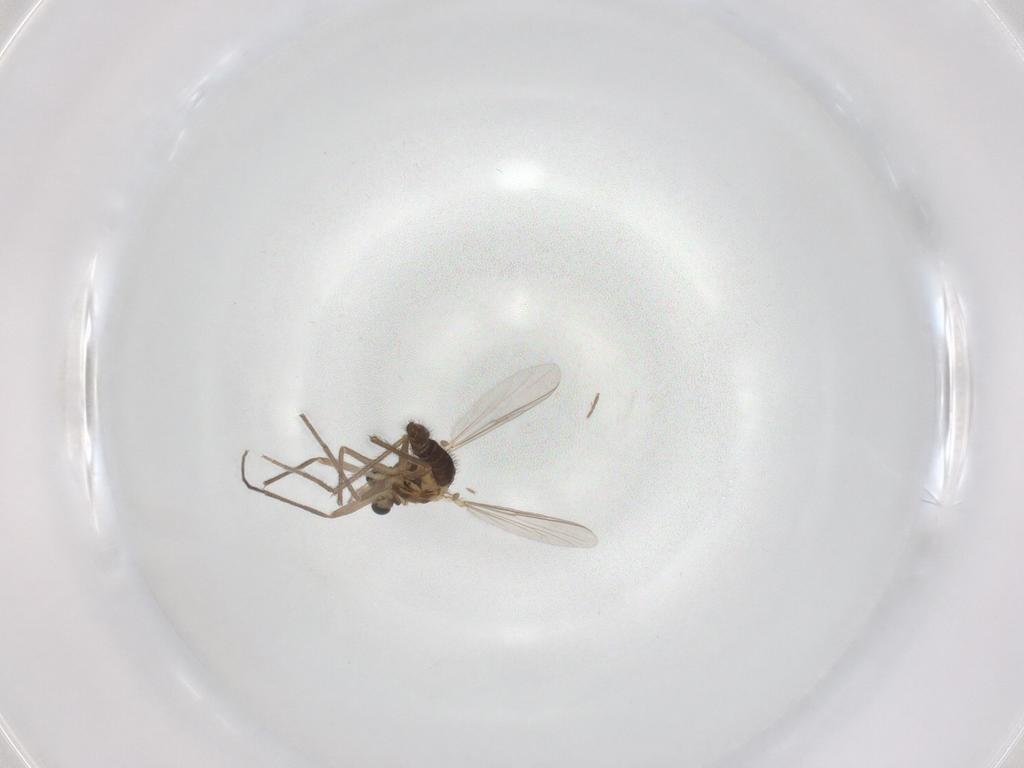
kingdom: Animalia
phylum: Arthropoda
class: Insecta
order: Diptera
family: Chironomidae
